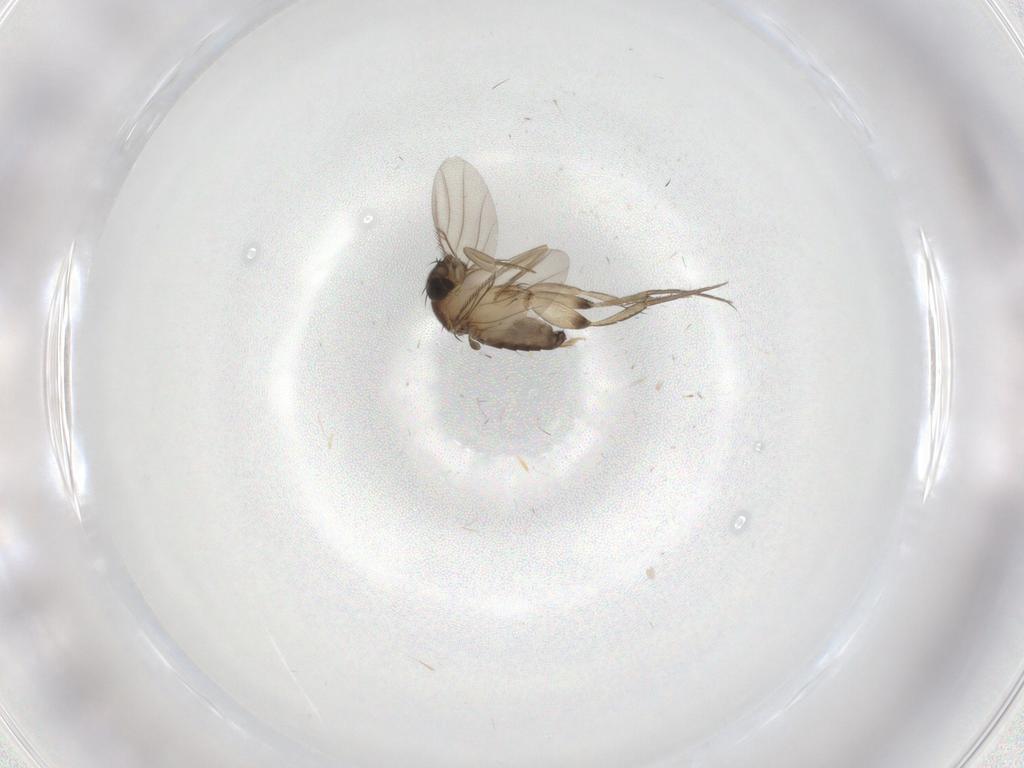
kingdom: Animalia
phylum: Arthropoda
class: Insecta
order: Diptera
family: Phoridae
